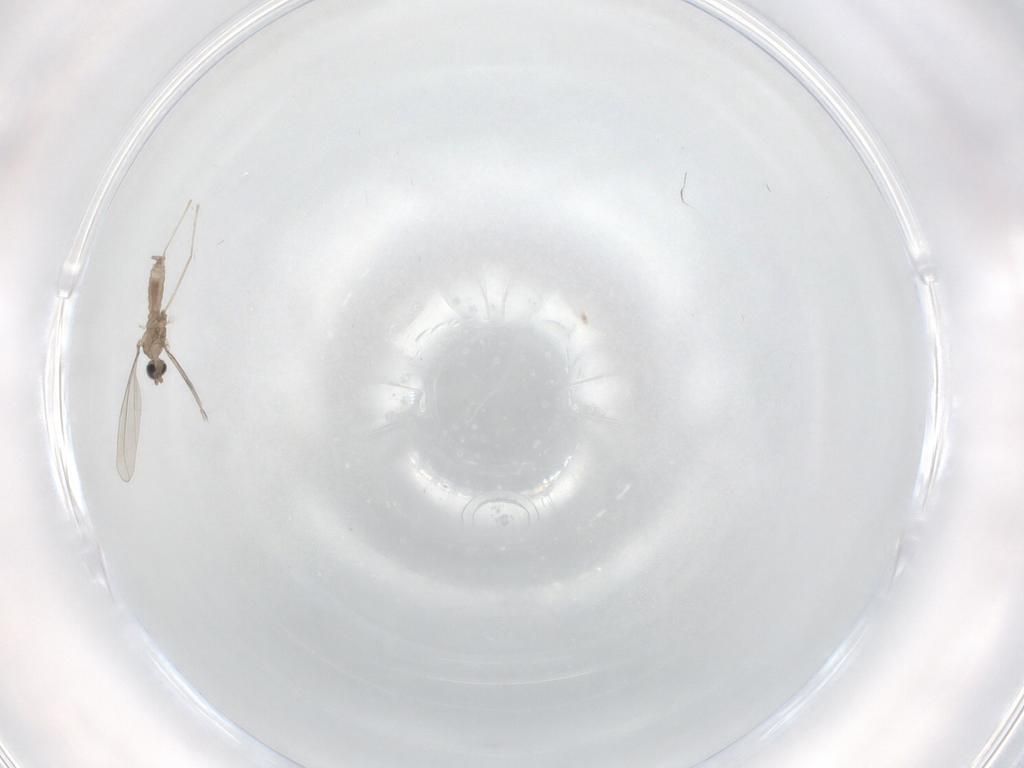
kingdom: Animalia
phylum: Arthropoda
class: Insecta
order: Diptera
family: Cecidomyiidae
